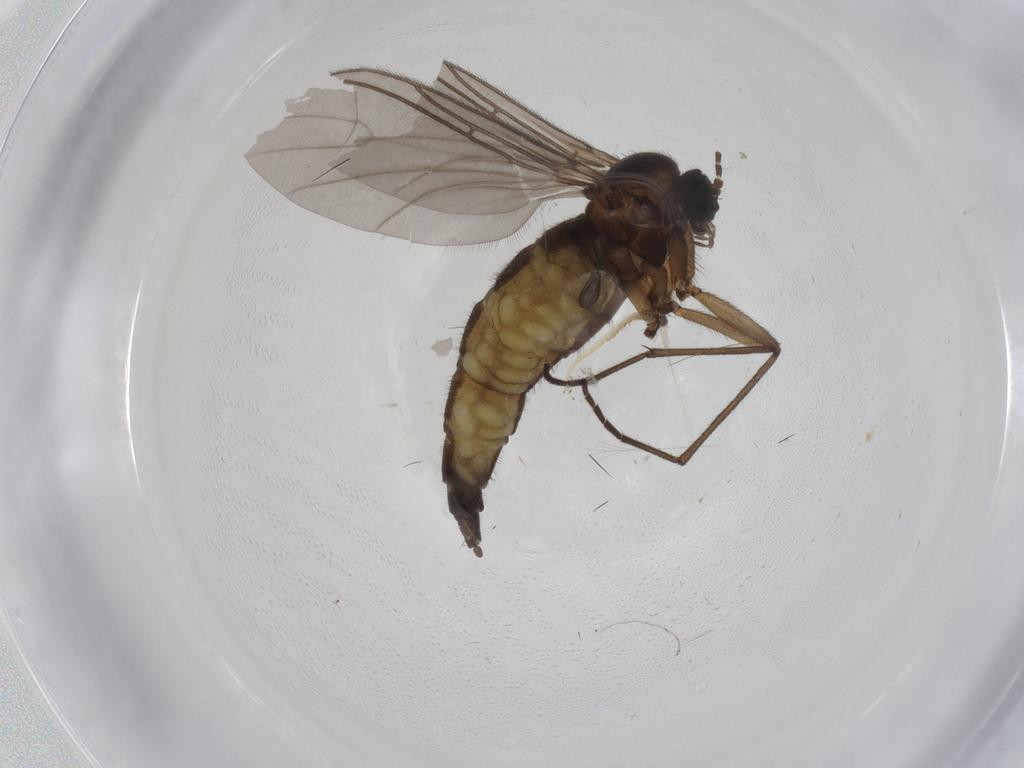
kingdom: Animalia
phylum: Arthropoda
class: Insecta
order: Diptera
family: Sciaridae
